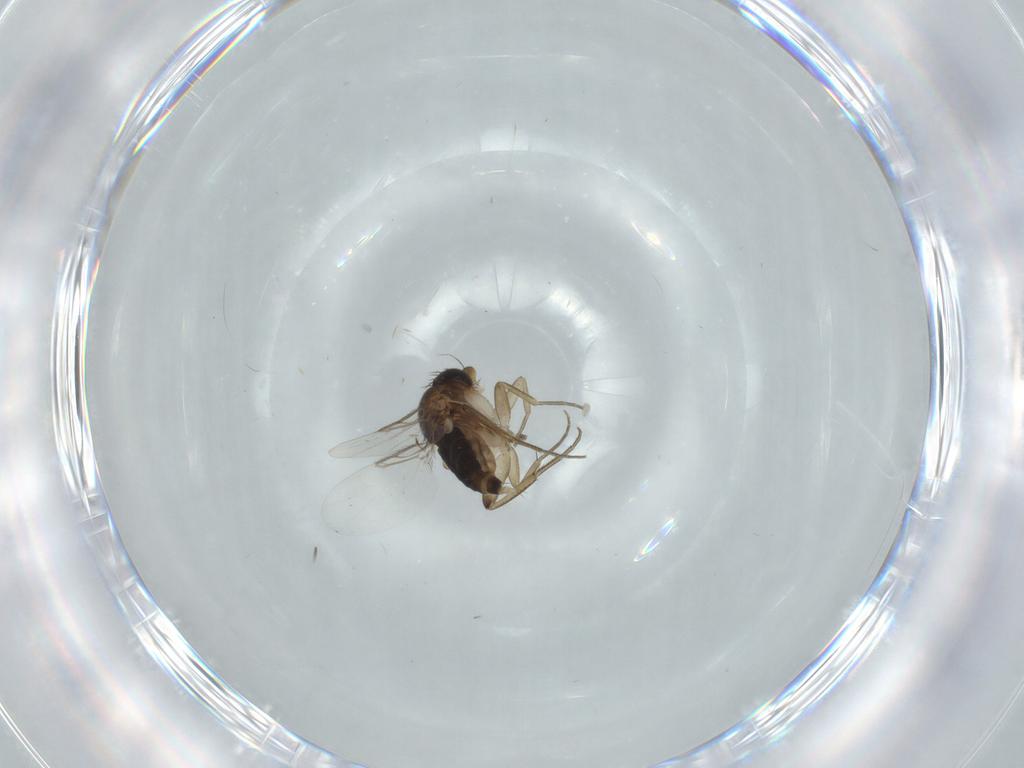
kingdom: Animalia
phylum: Arthropoda
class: Insecta
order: Diptera
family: Phoridae
